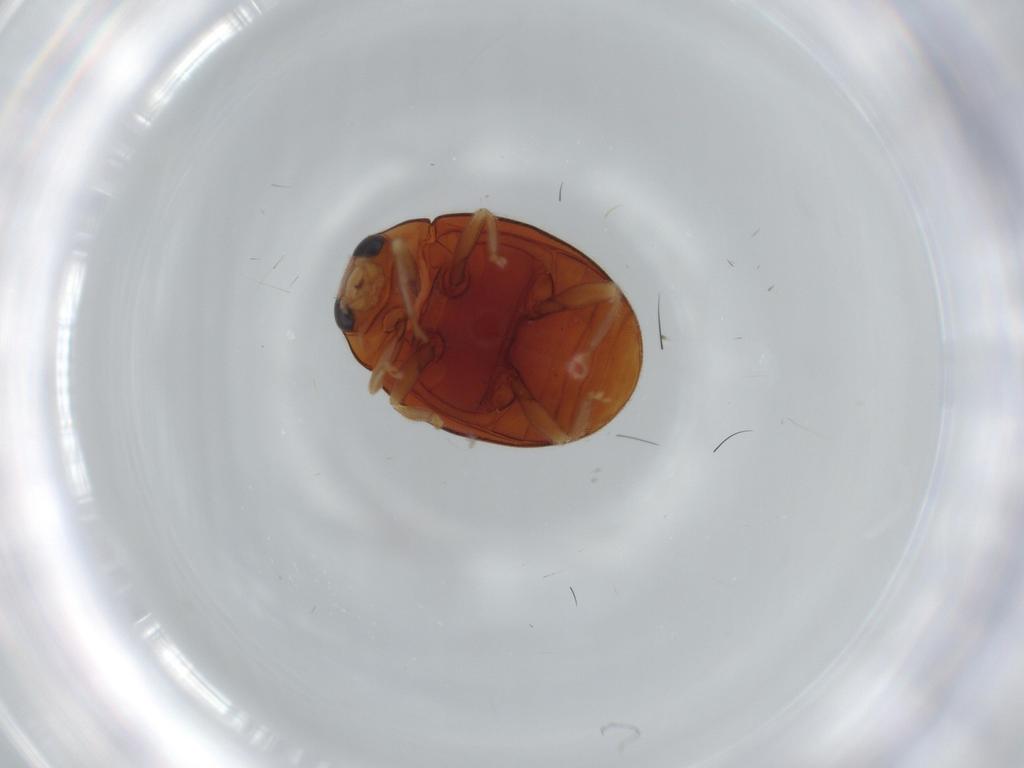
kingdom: Animalia
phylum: Arthropoda
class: Insecta
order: Coleoptera
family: Coccinellidae
